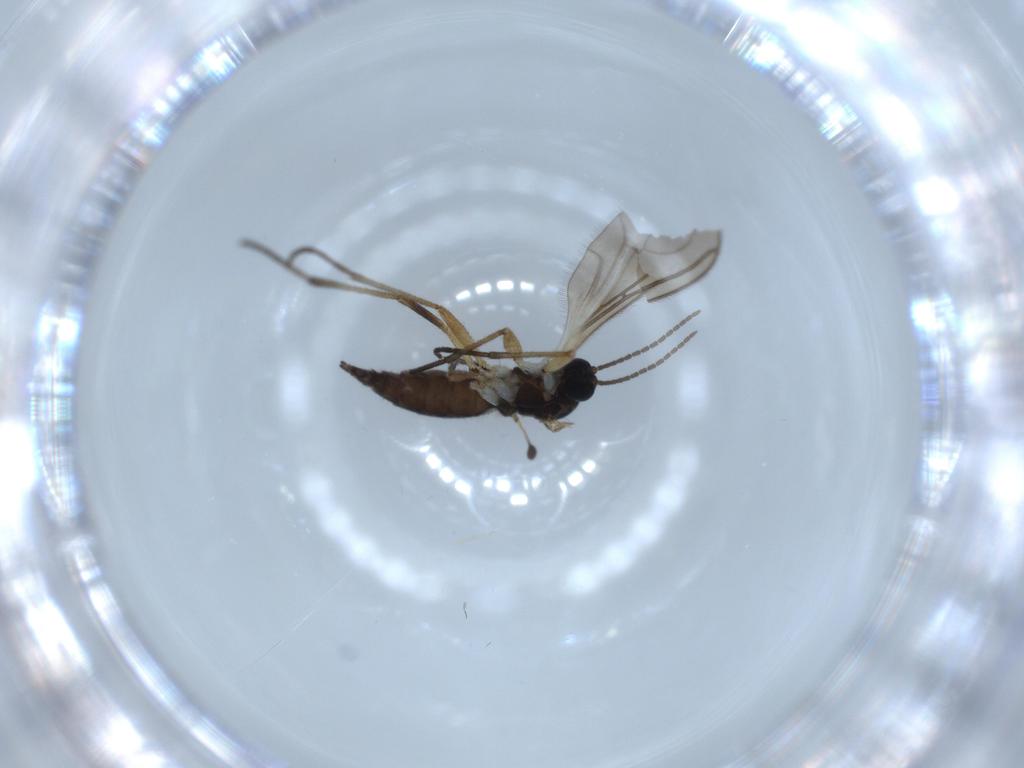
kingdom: Animalia
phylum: Arthropoda
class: Insecta
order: Diptera
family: Sciaridae
